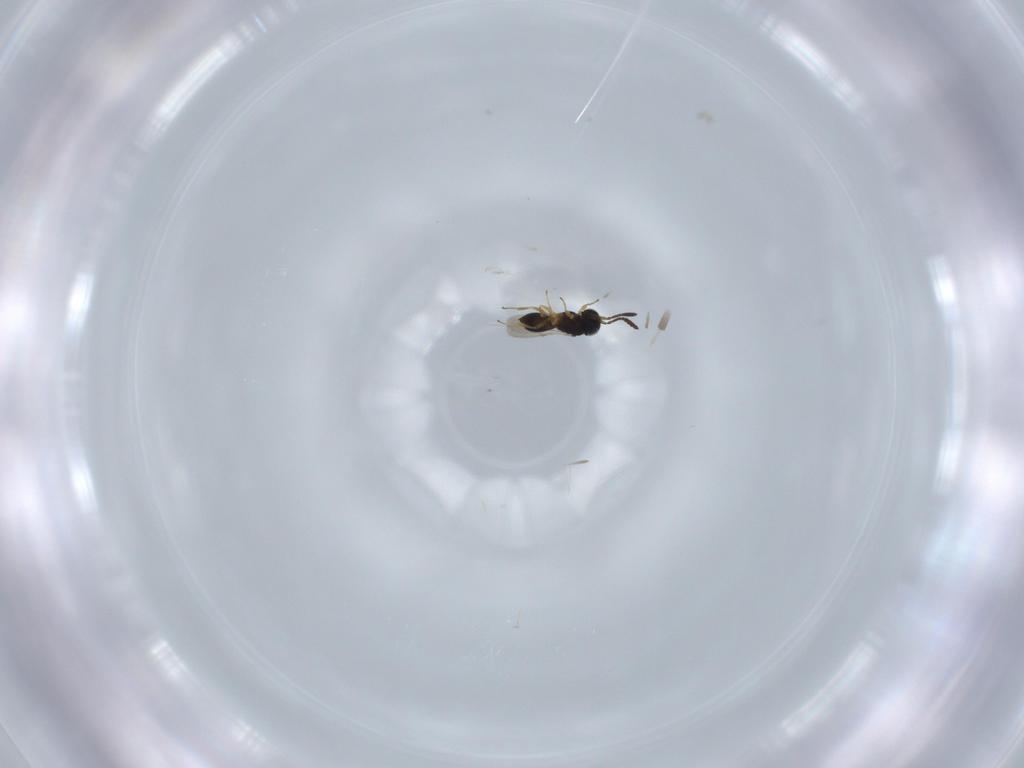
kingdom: Animalia
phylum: Arthropoda
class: Insecta
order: Hymenoptera
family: Scelionidae
